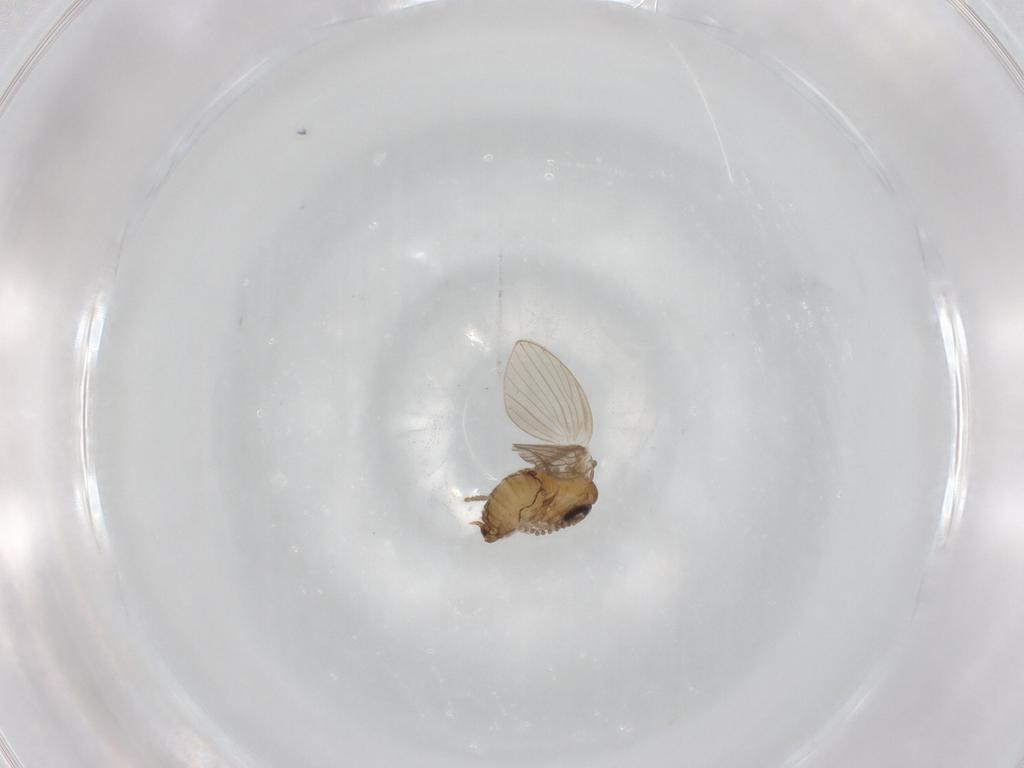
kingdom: Animalia
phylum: Arthropoda
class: Insecta
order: Diptera
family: Psychodidae
